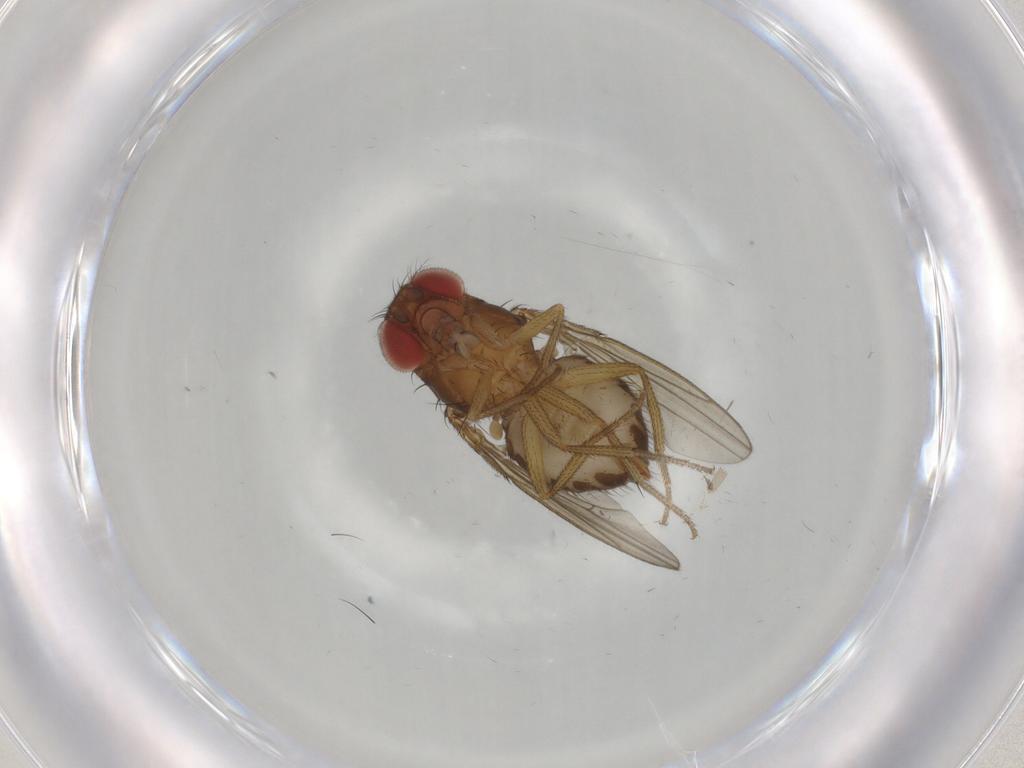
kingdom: Animalia
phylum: Arthropoda
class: Insecta
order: Diptera
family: Drosophilidae
